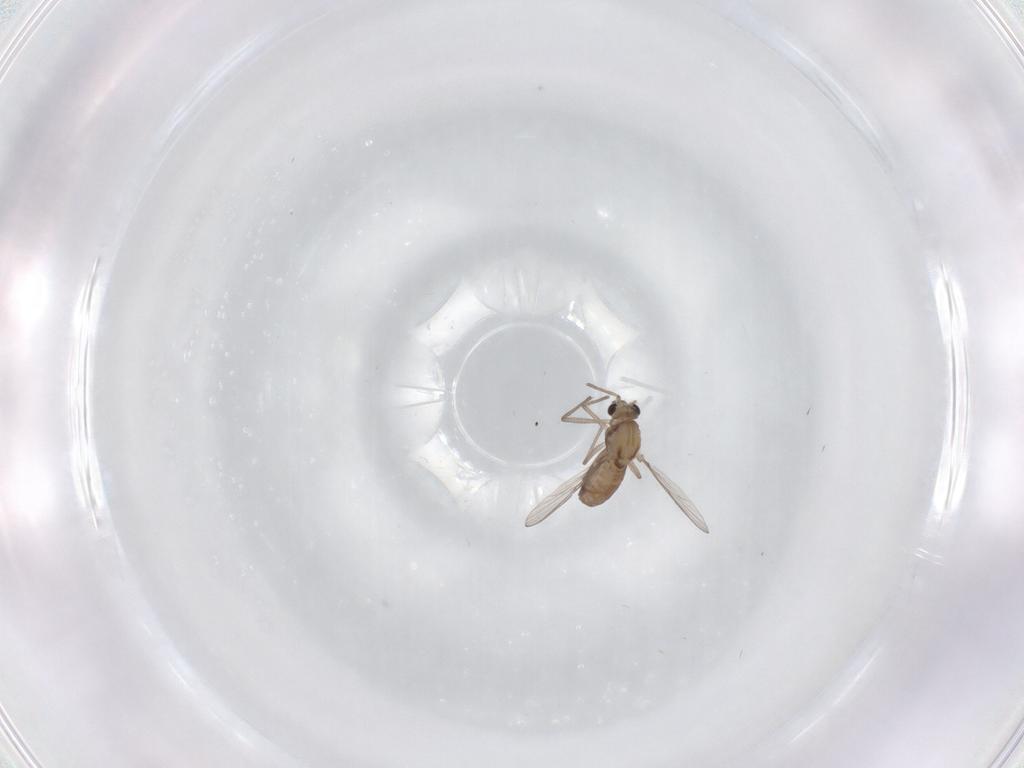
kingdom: Animalia
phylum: Arthropoda
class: Insecta
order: Diptera
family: Chironomidae
